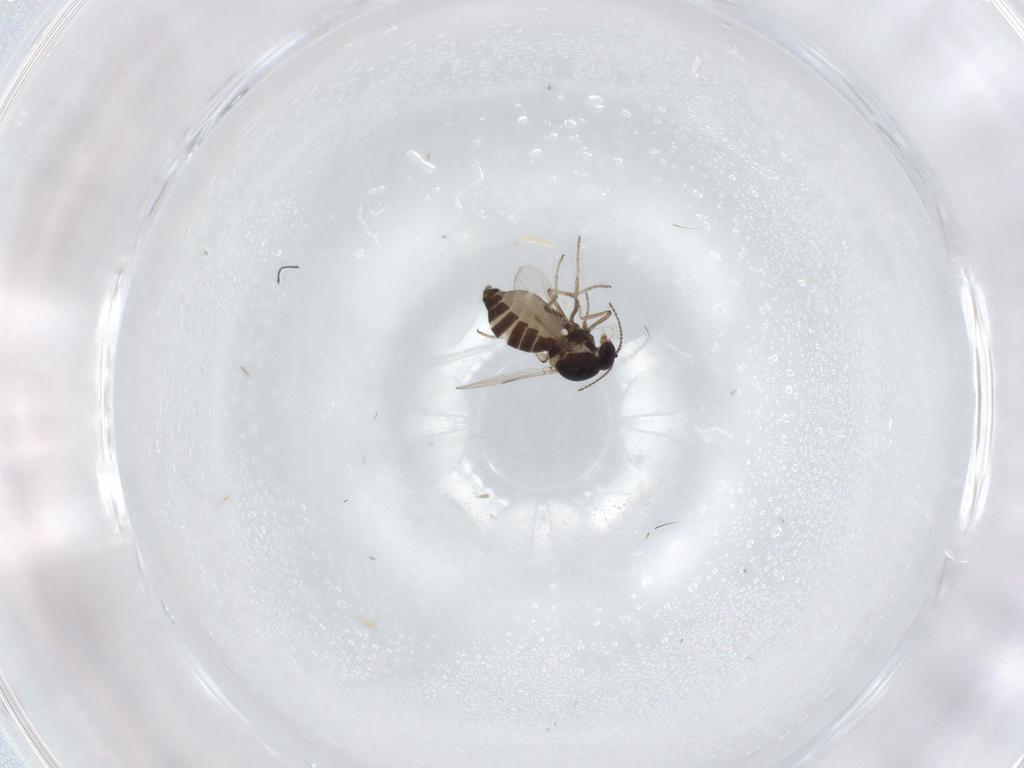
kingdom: Animalia
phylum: Arthropoda
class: Insecta
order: Diptera
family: Ceratopogonidae
